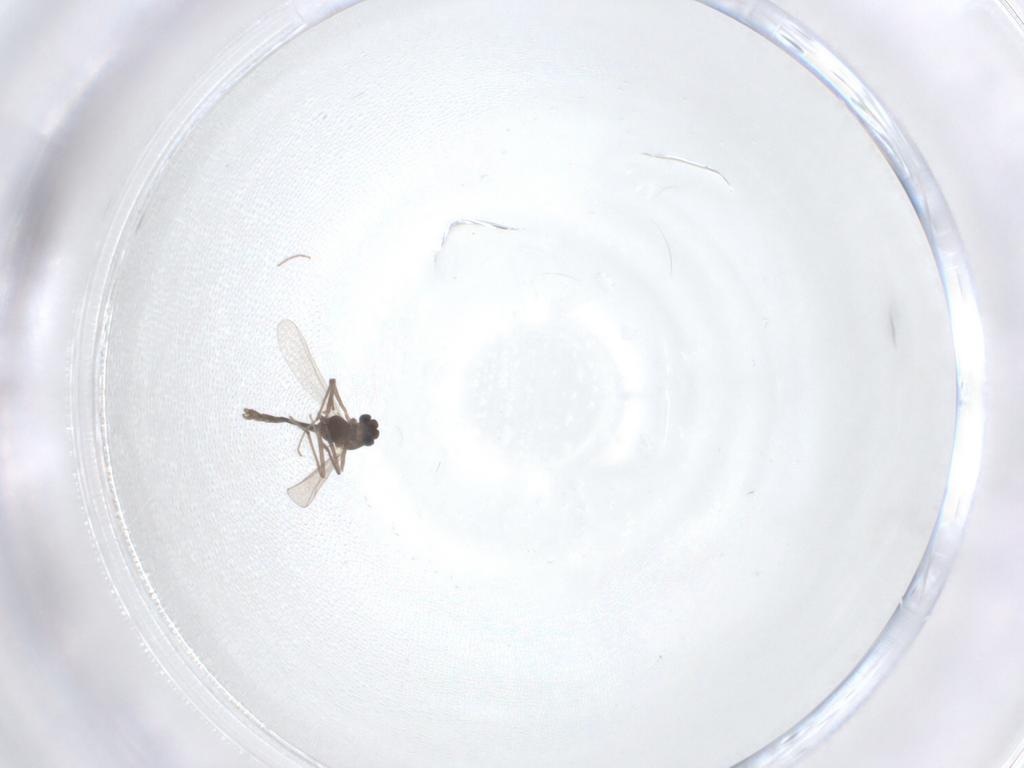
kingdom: Animalia
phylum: Arthropoda
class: Insecta
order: Diptera
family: Chironomidae
